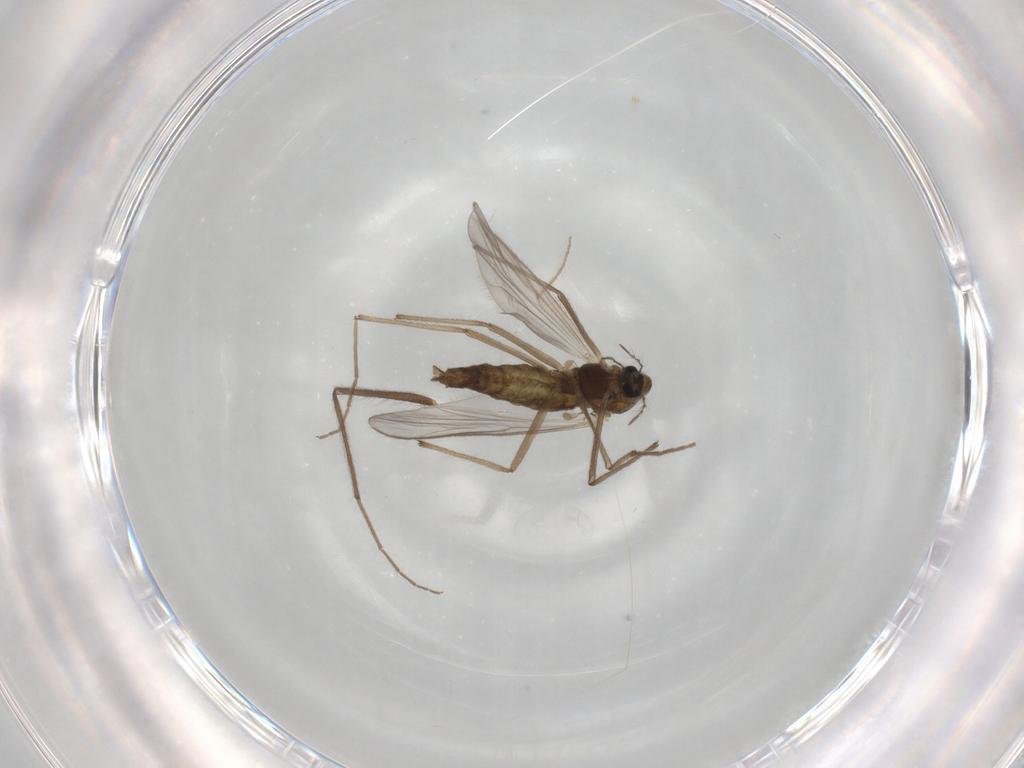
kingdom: Animalia
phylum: Arthropoda
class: Insecta
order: Diptera
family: Chironomidae
